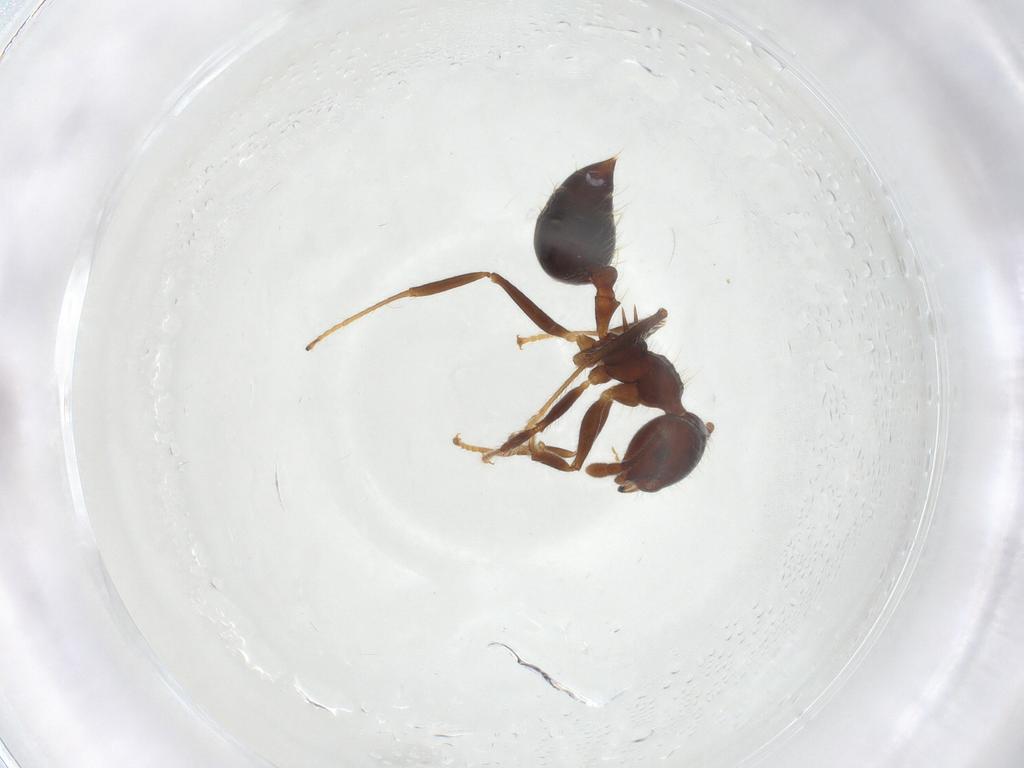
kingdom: Animalia
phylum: Arthropoda
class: Insecta
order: Hymenoptera
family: Formicidae
